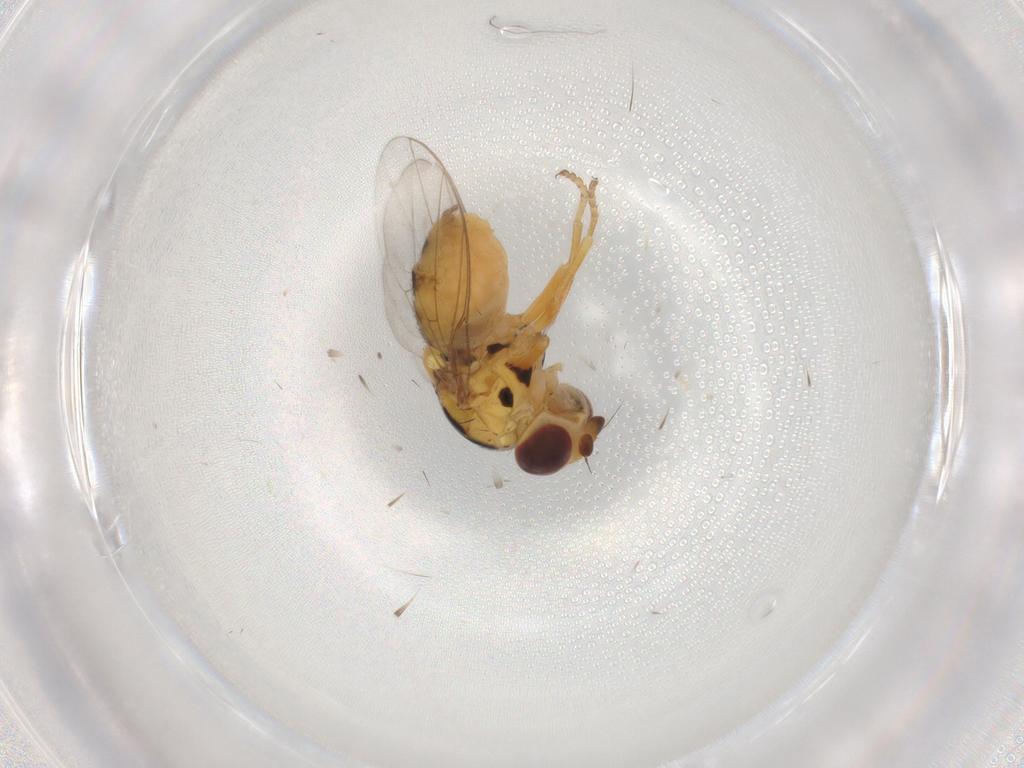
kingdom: Animalia
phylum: Arthropoda
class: Insecta
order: Diptera
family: Chloropidae
